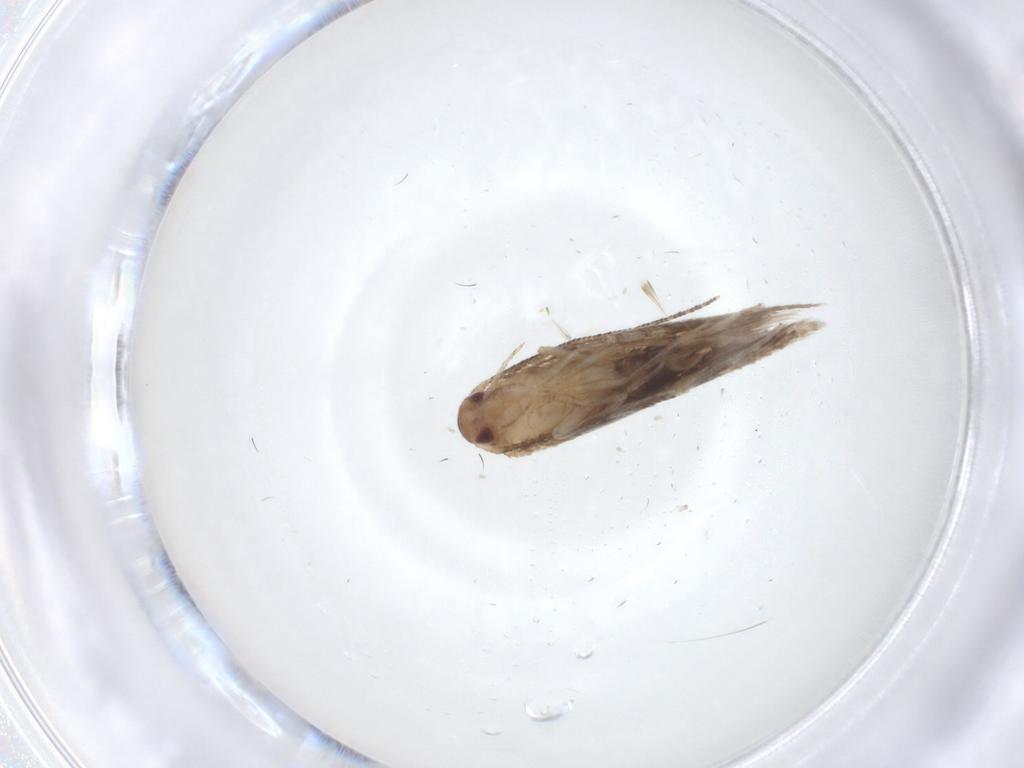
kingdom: Animalia
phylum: Arthropoda
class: Insecta
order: Lepidoptera
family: Momphidae
